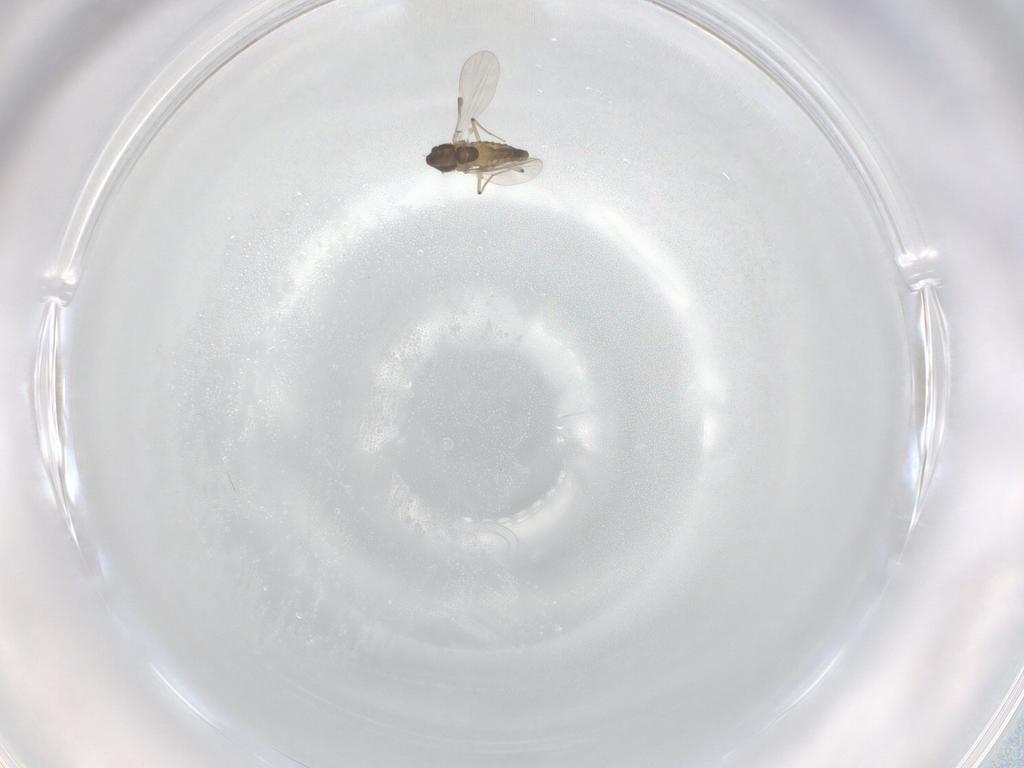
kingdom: Animalia
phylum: Arthropoda
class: Insecta
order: Diptera
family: Chironomidae
